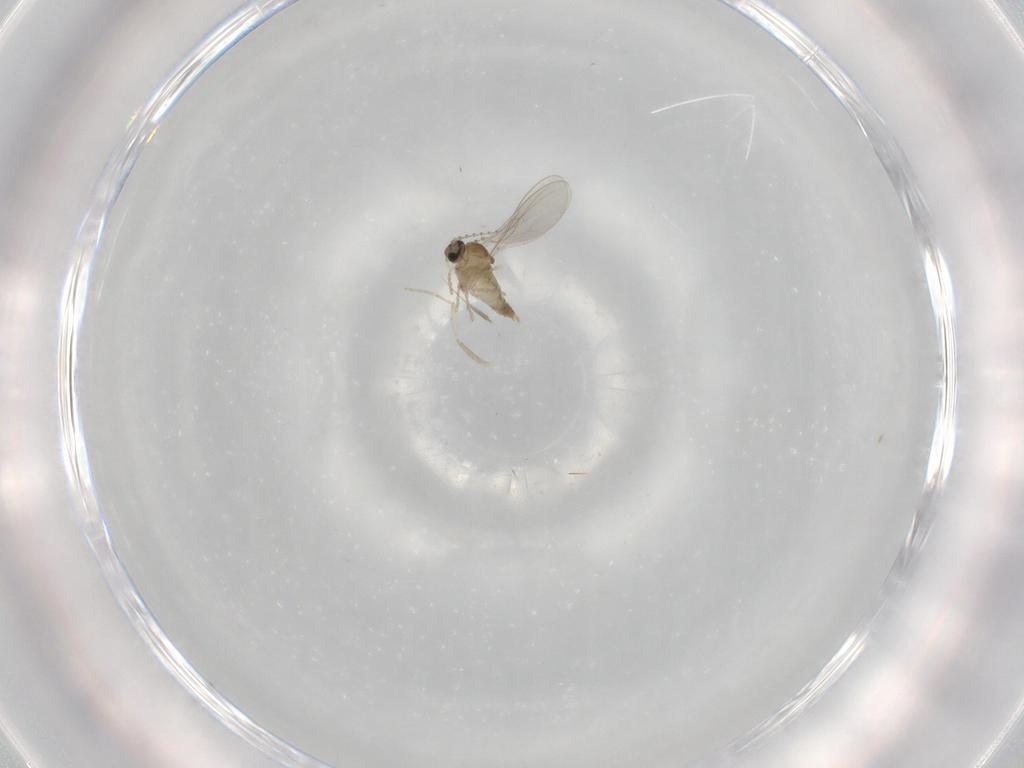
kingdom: Animalia
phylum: Arthropoda
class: Insecta
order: Diptera
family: Cecidomyiidae
